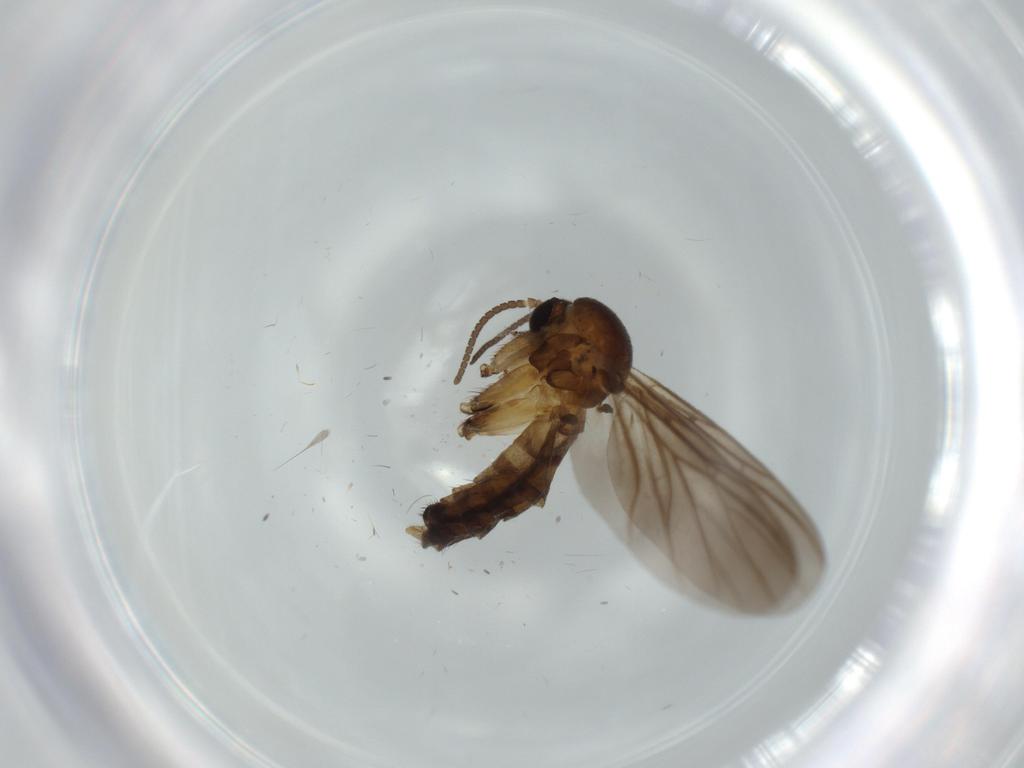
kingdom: Animalia
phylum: Arthropoda
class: Insecta
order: Diptera
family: Mycetophilidae
